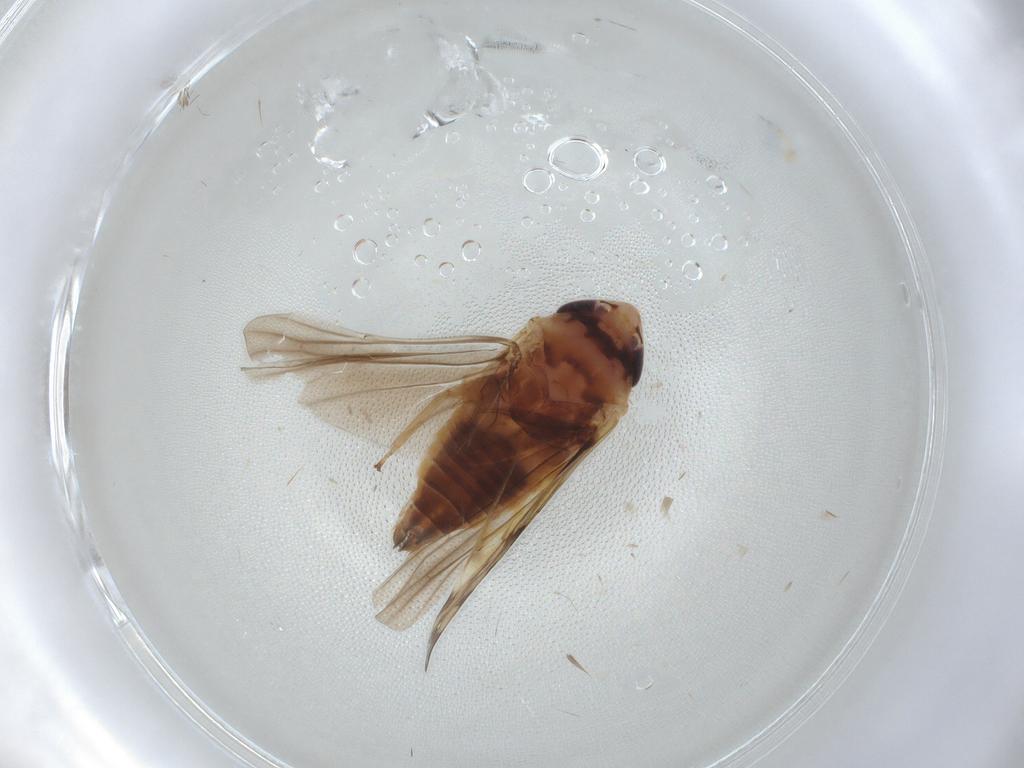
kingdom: Animalia
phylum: Arthropoda
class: Insecta
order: Hemiptera
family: Cicadellidae
